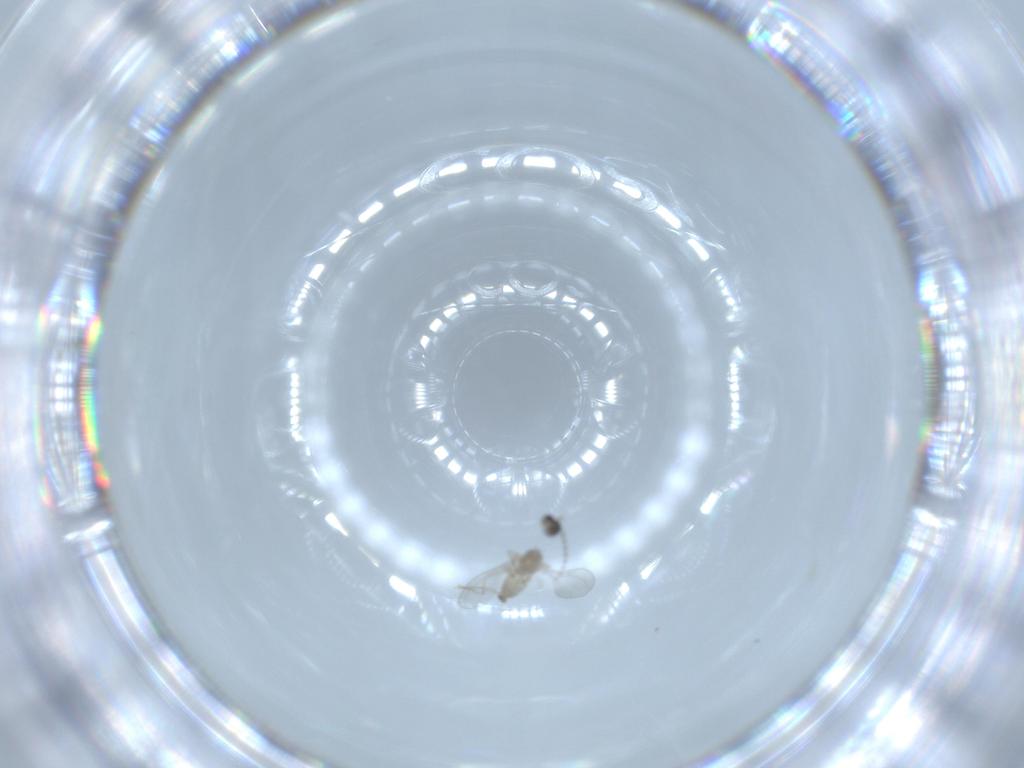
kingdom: Animalia
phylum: Arthropoda
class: Insecta
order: Diptera
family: Cecidomyiidae
